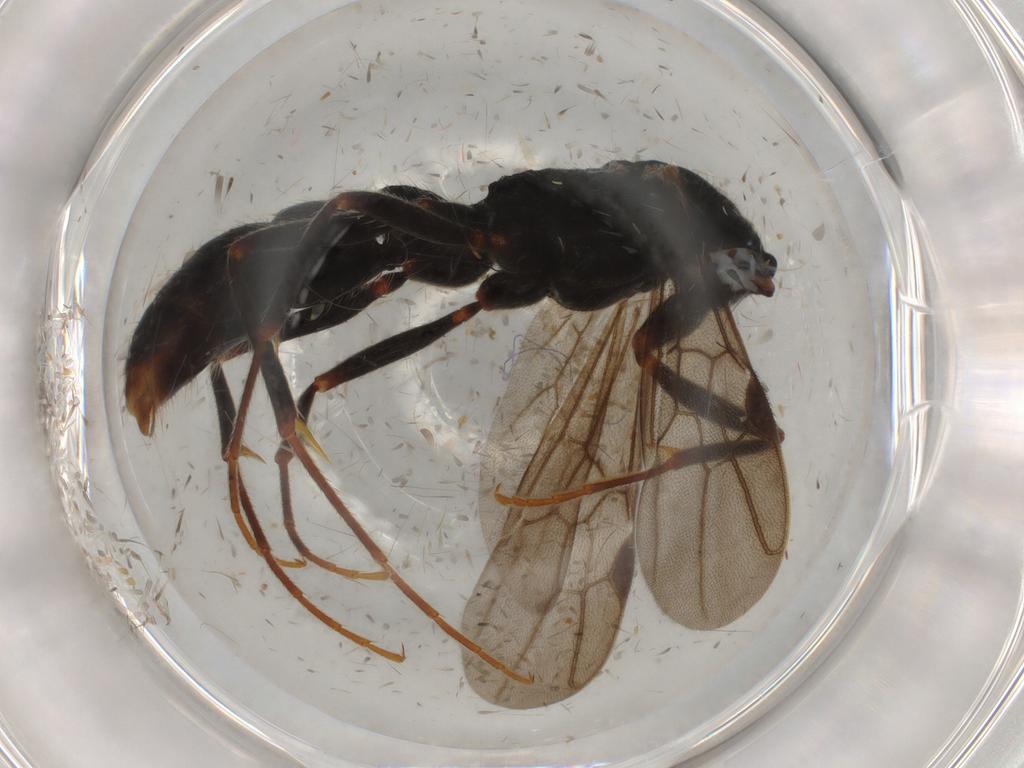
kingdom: Animalia
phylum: Arthropoda
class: Insecta
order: Hymenoptera
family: Formicidae
